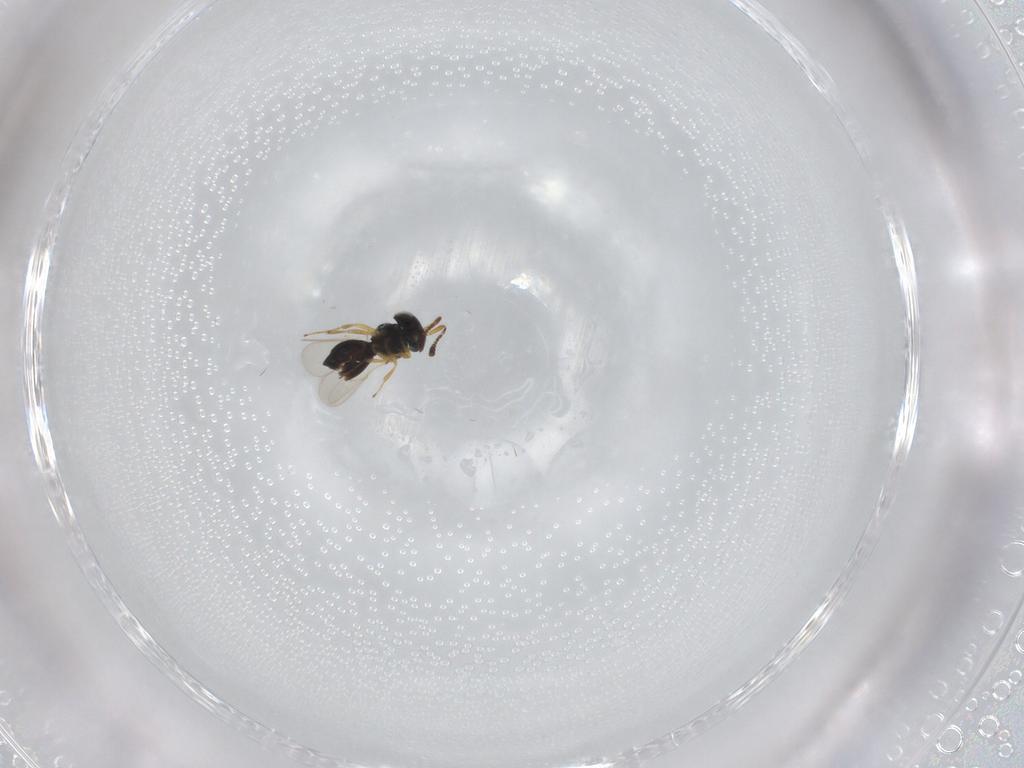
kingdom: Animalia
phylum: Arthropoda
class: Insecta
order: Hymenoptera
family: Scelionidae
